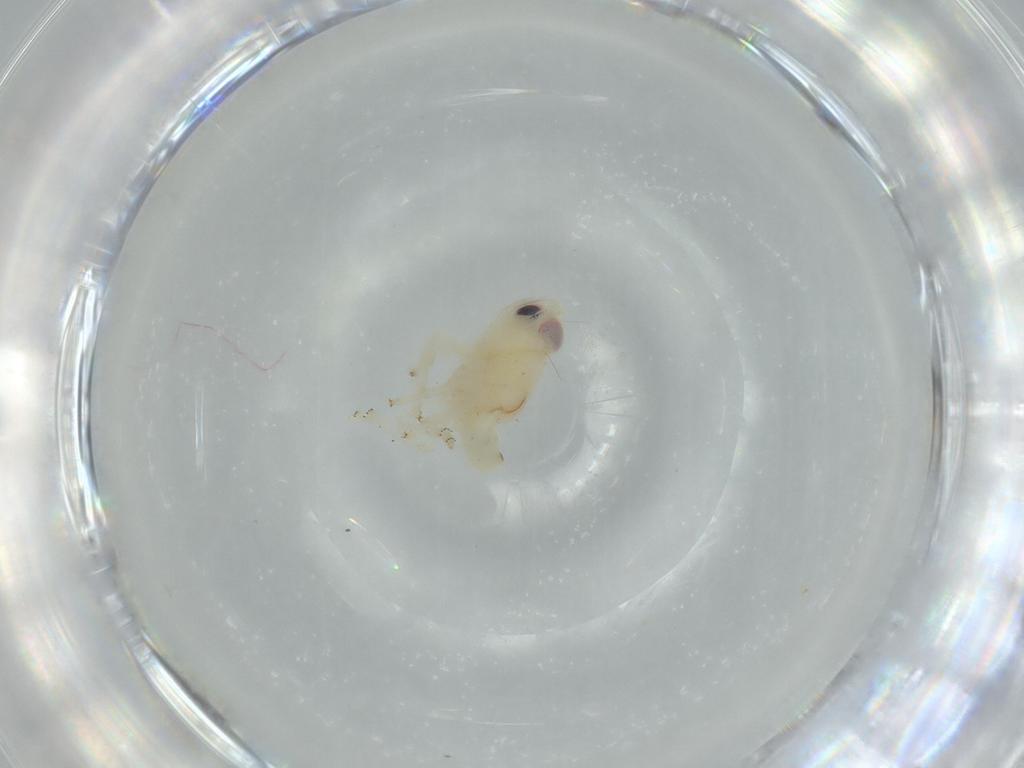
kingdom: Animalia
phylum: Arthropoda
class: Insecta
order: Hemiptera
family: Nogodinidae
